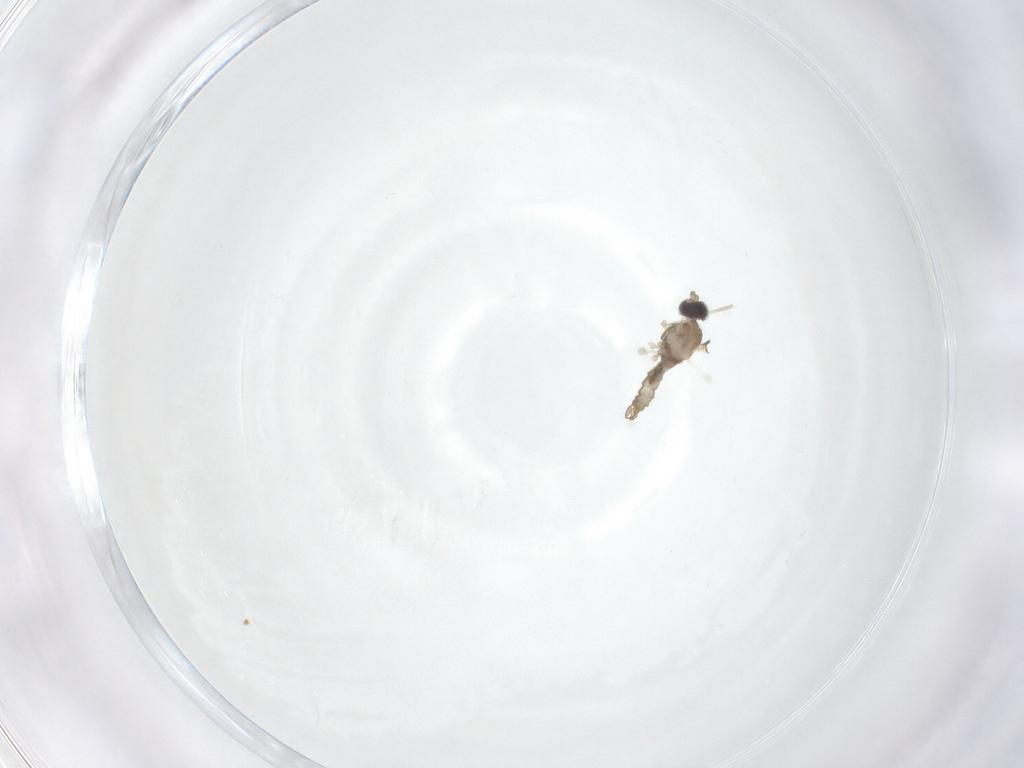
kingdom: Animalia
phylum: Arthropoda
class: Insecta
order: Diptera
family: Cecidomyiidae
